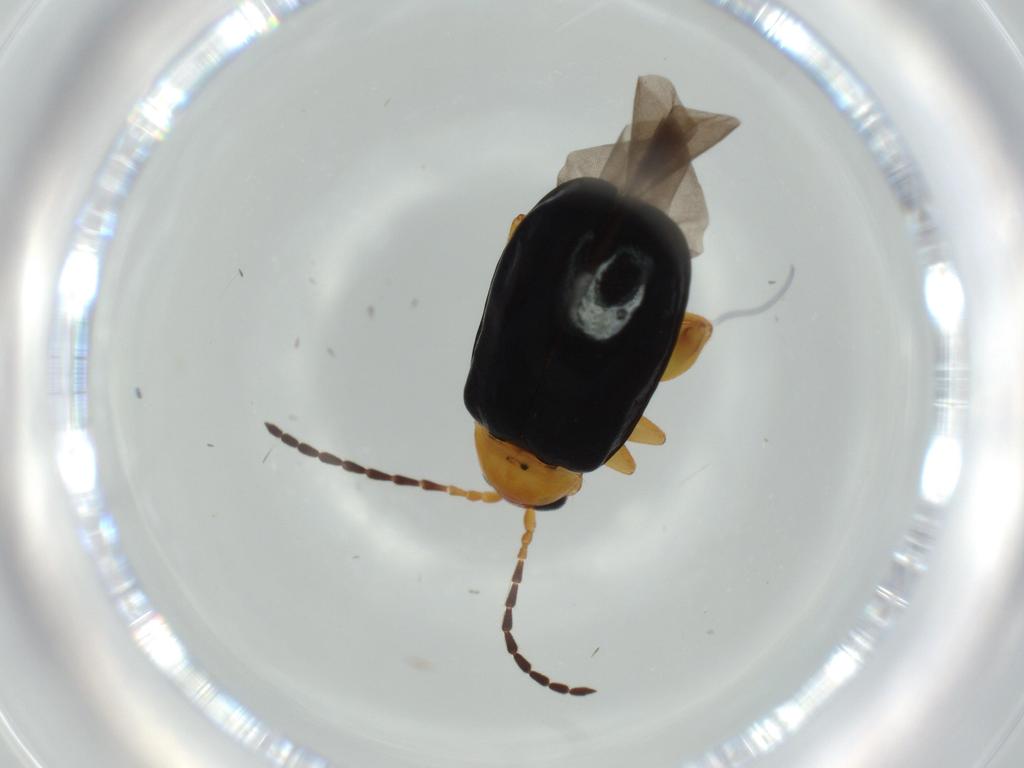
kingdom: Animalia
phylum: Arthropoda
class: Insecta
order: Coleoptera
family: Chrysomelidae
